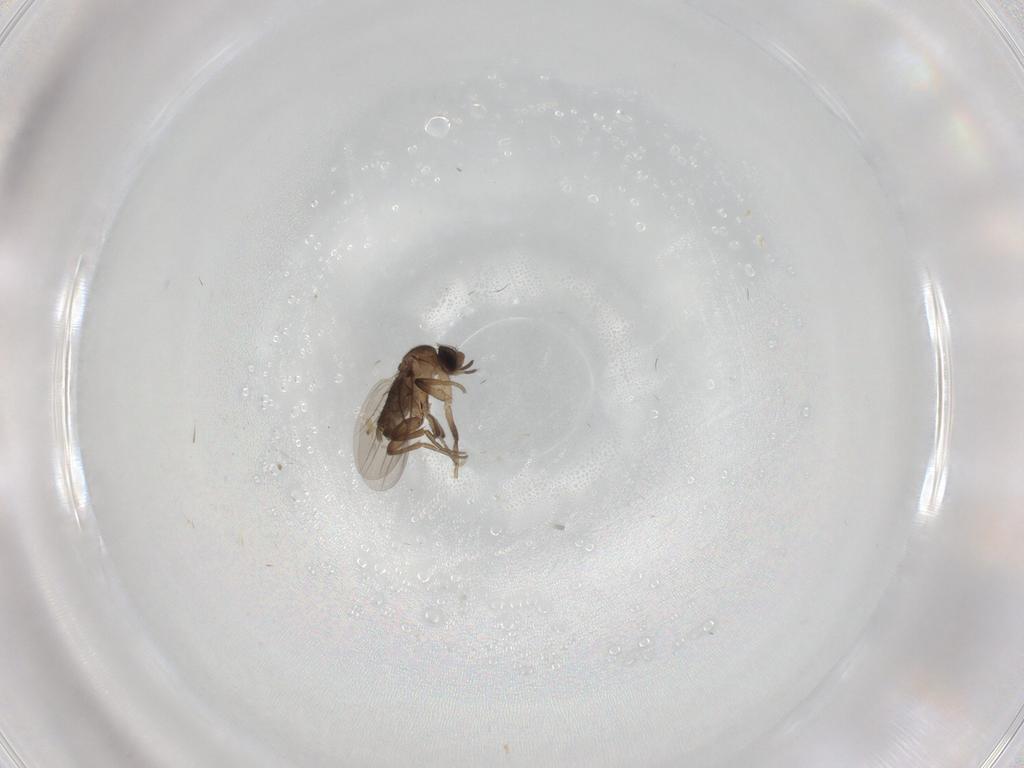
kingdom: Animalia
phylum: Arthropoda
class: Insecta
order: Diptera
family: Phoridae
